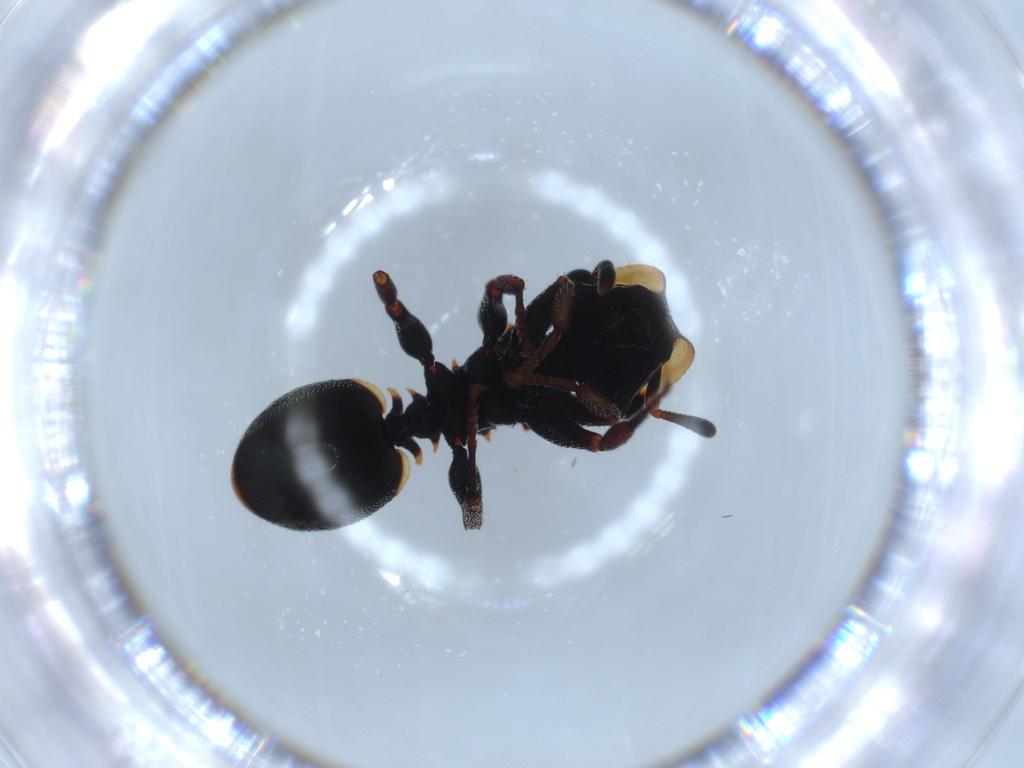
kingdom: Animalia
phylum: Arthropoda
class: Insecta
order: Hymenoptera
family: Formicidae
